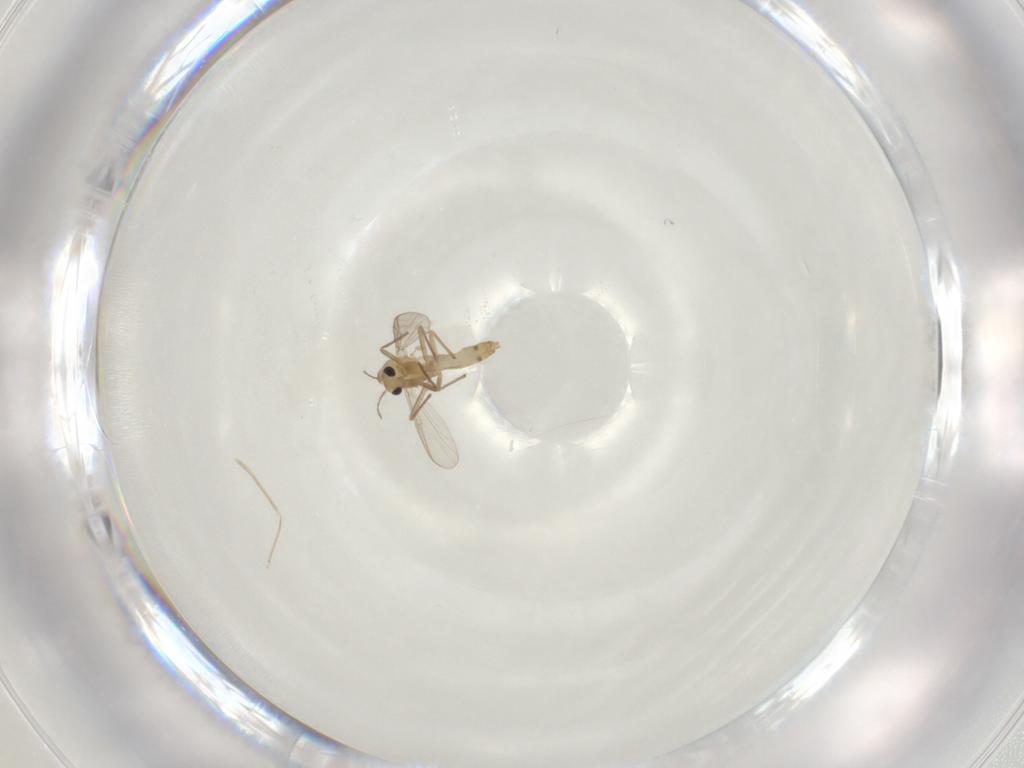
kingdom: Animalia
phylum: Arthropoda
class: Insecta
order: Diptera
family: Chironomidae
